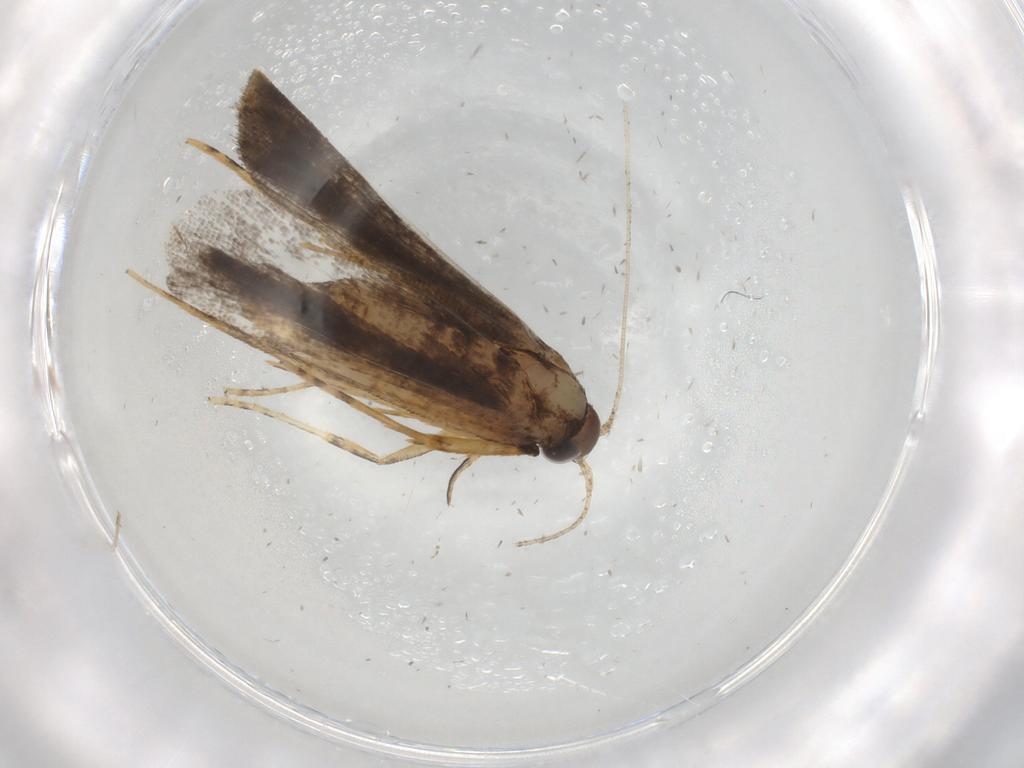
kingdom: Animalia
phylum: Arthropoda
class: Insecta
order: Lepidoptera
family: Cosmopterigidae
